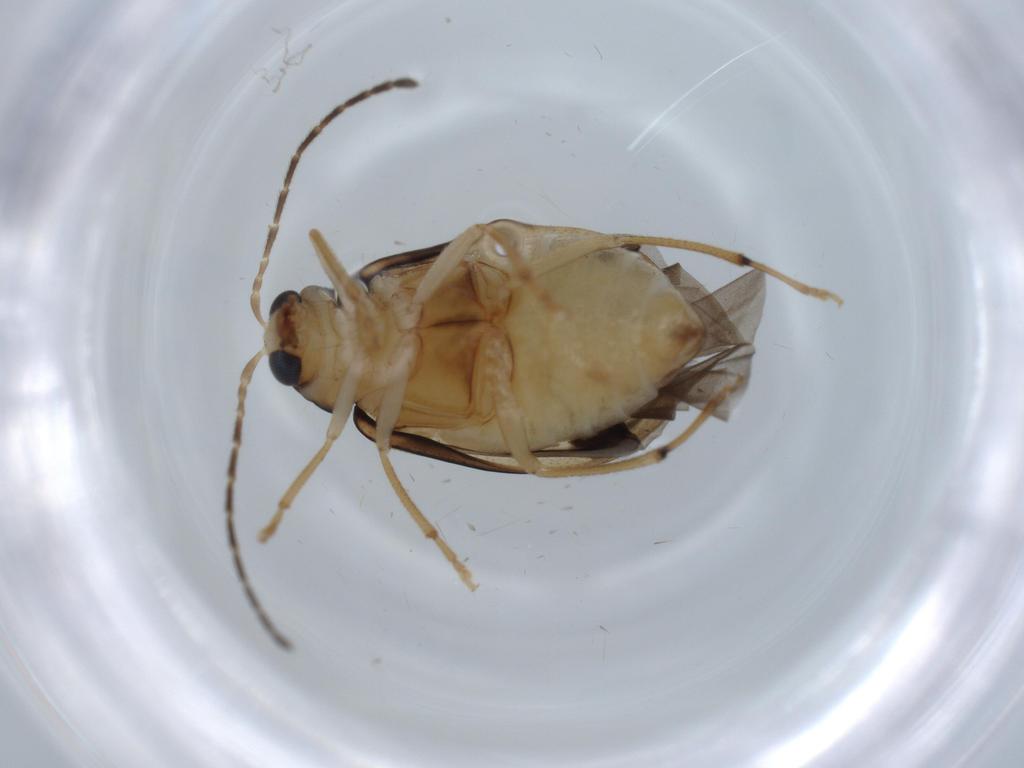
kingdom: Animalia
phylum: Arthropoda
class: Insecta
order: Coleoptera
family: Chrysomelidae
